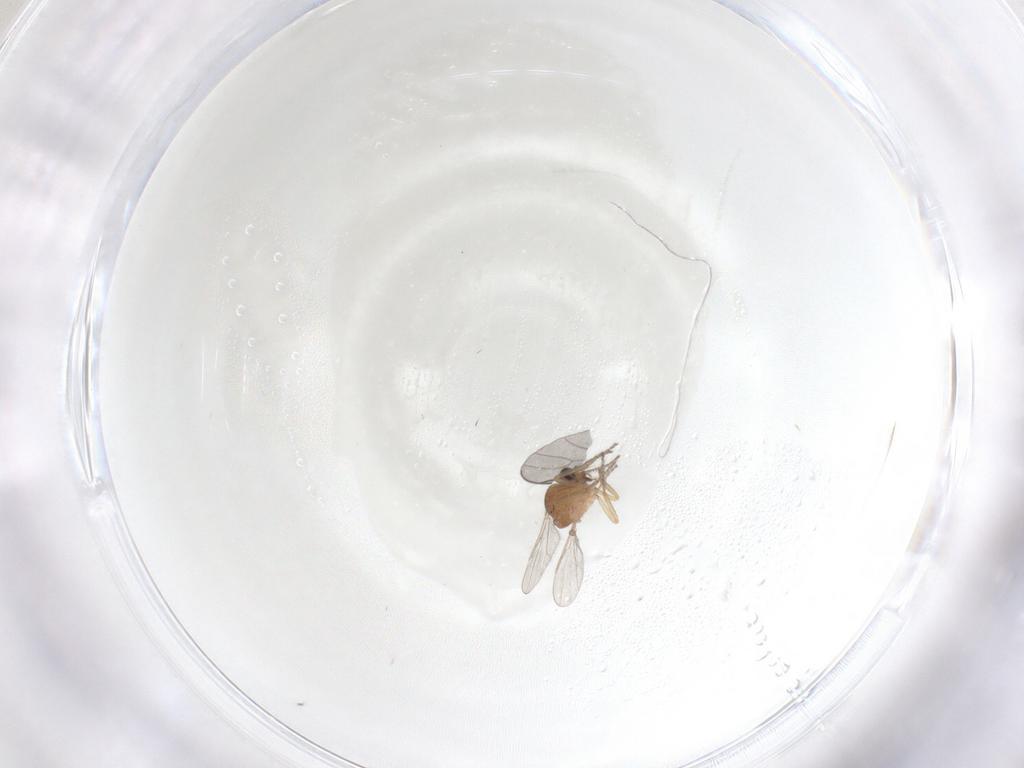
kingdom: Animalia
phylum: Arthropoda
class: Insecta
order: Diptera
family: Ceratopogonidae
